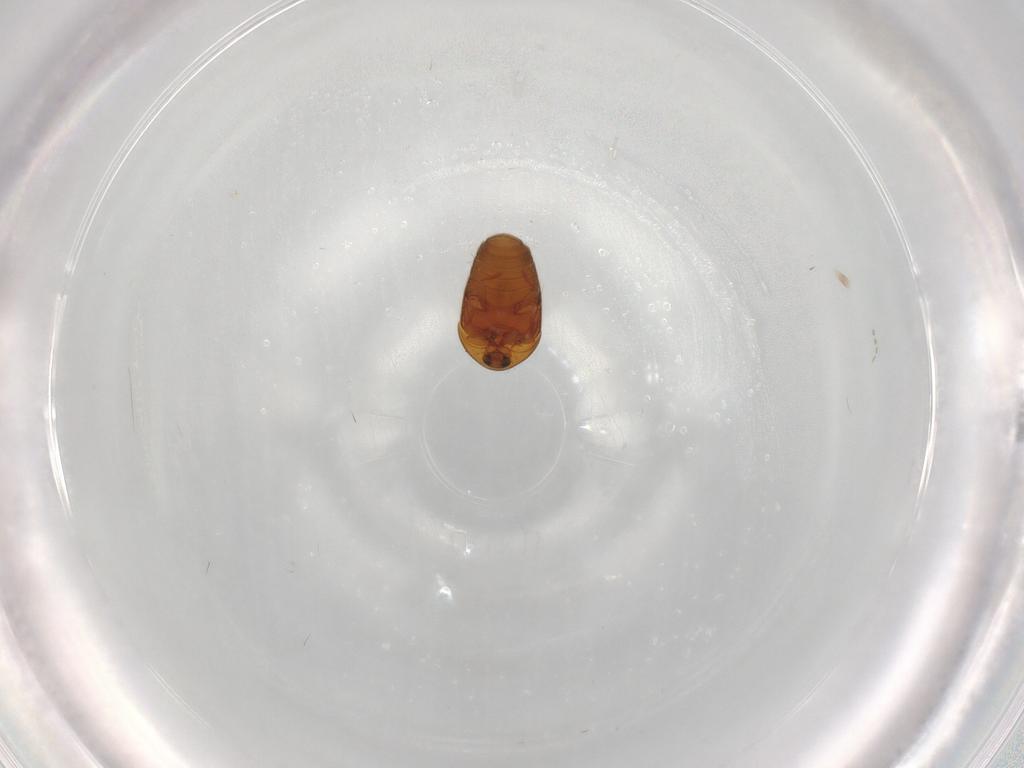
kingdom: Animalia
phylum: Arthropoda
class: Insecta
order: Coleoptera
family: Corylophidae
